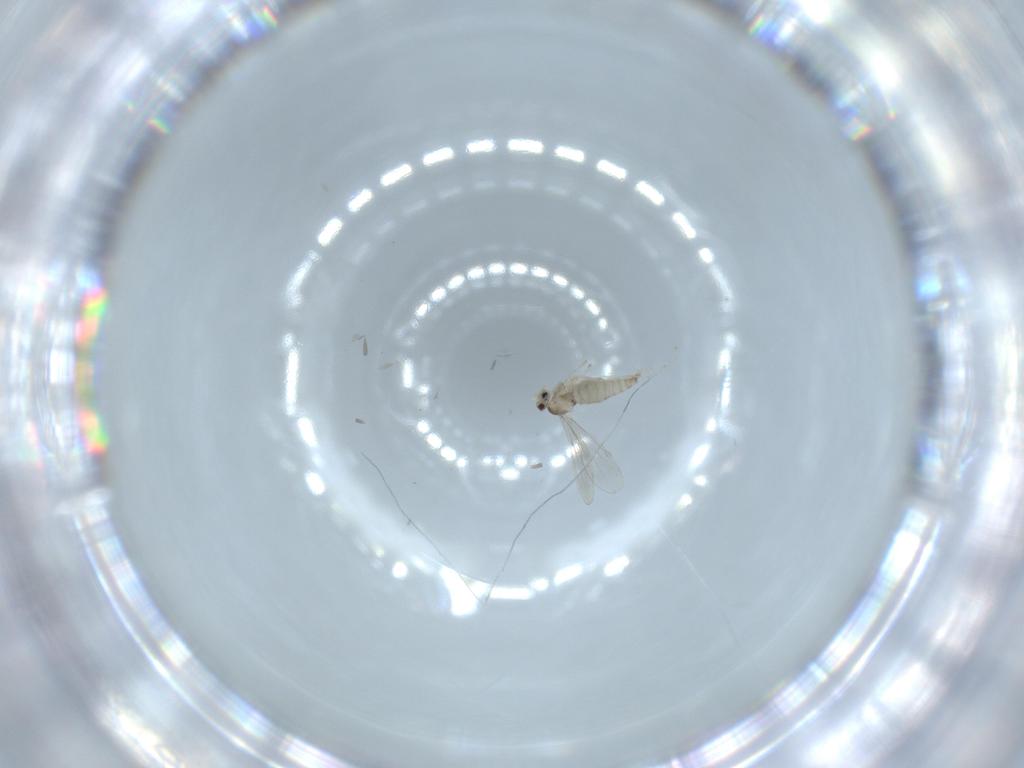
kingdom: Animalia
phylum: Arthropoda
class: Insecta
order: Diptera
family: Cecidomyiidae
